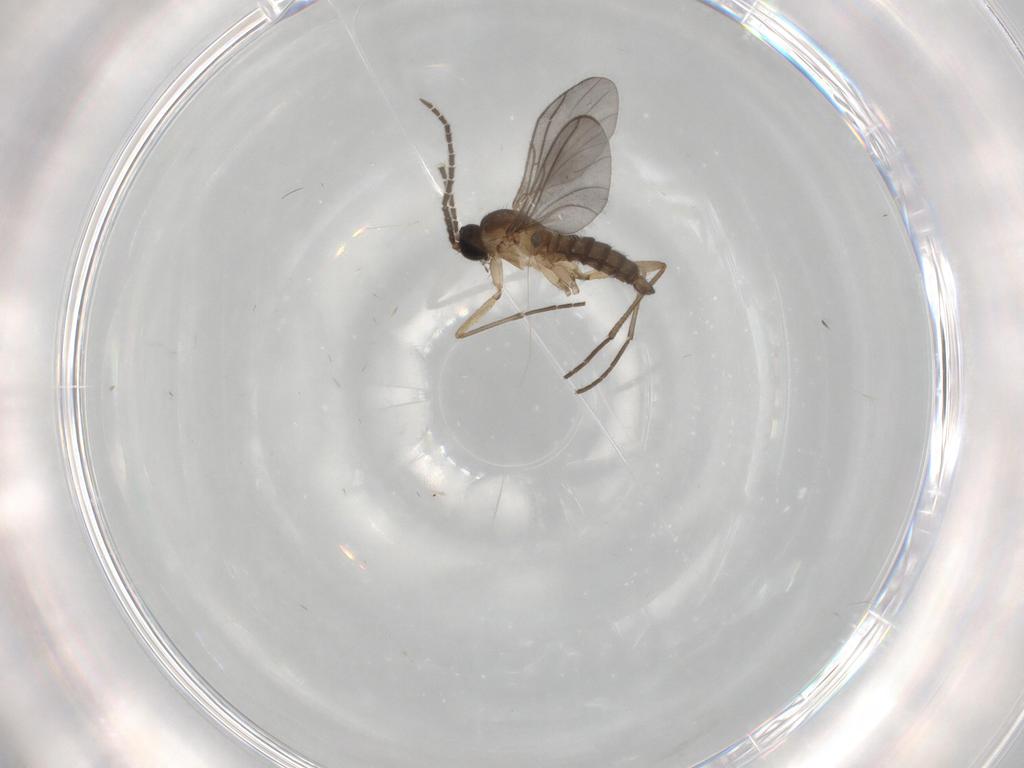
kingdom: Animalia
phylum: Arthropoda
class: Insecta
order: Diptera
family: Sciaridae
